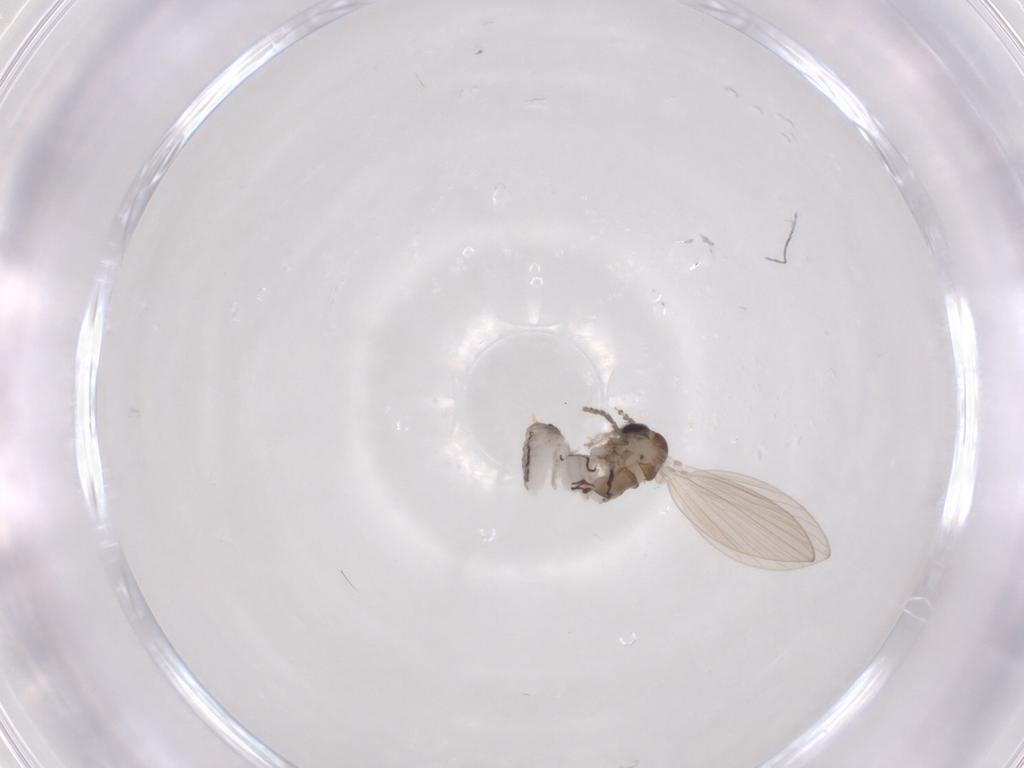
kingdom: Animalia
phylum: Arthropoda
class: Insecta
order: Diptera
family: Psychodidae
